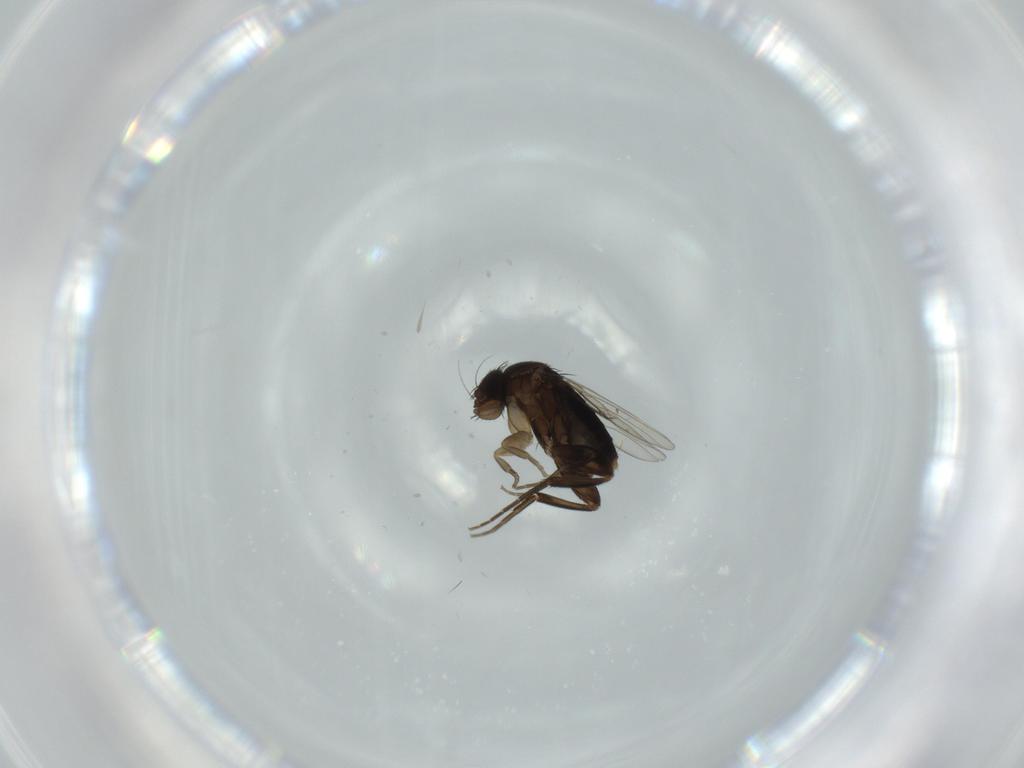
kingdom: Animalia
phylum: Arthropoda
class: Insecta
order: Diptera
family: Phoridae
